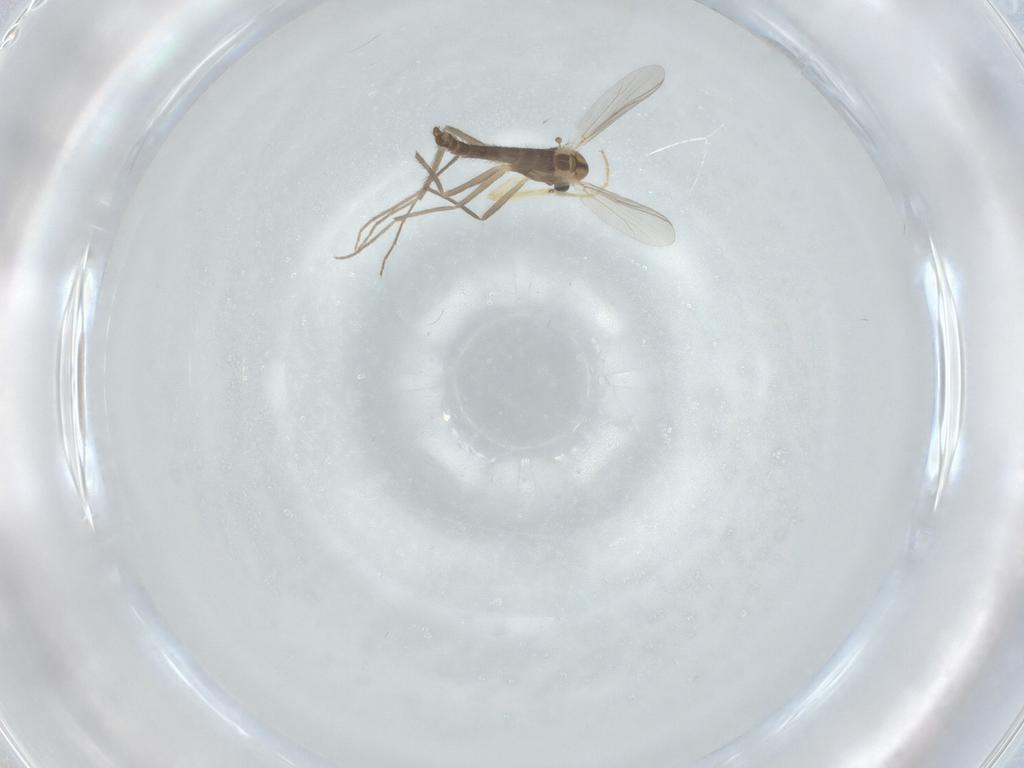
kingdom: Animalia
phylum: Arthropoda
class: Insecta
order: Diptera
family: Chironomidae
